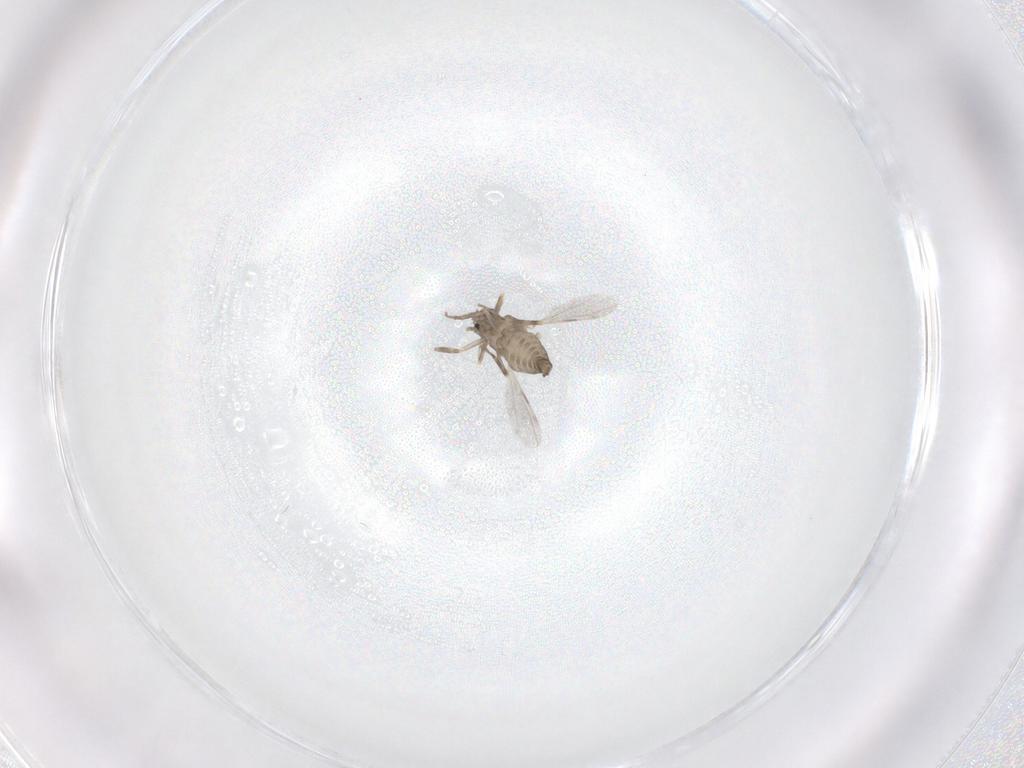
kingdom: Animalia
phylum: Arthropoda
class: Insecta
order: Diptera
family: Ceratopogonidae
